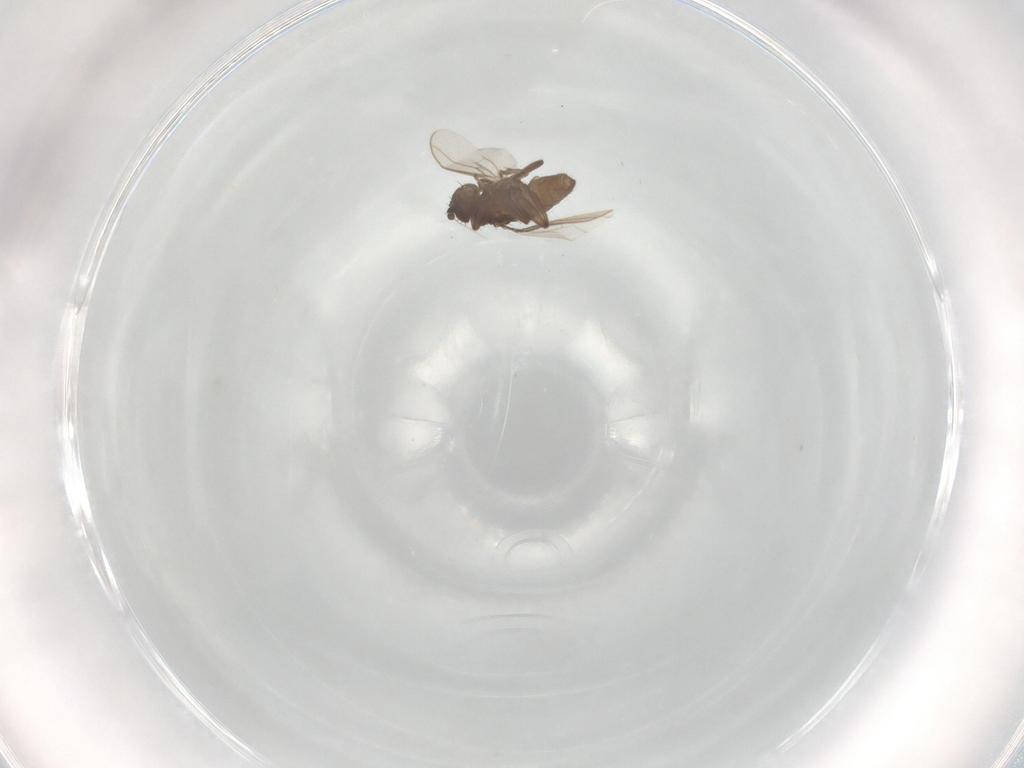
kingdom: Animalia
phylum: Arthropoda
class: Insecta
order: Diptera
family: Sphaeroceridae
